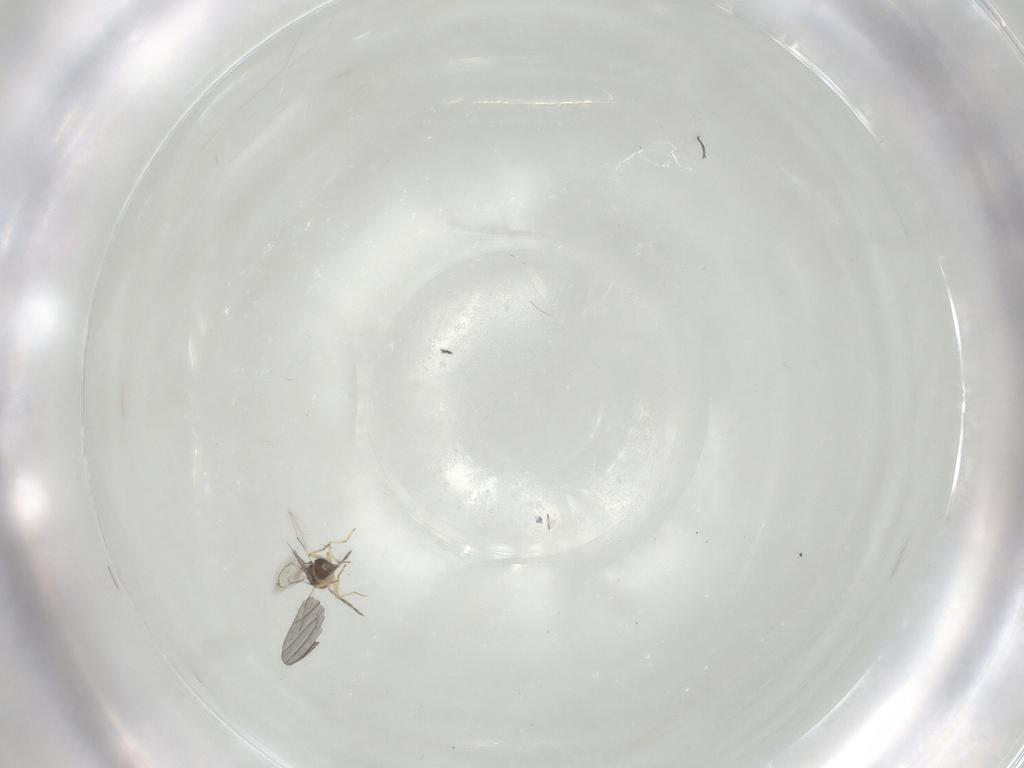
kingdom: Animalia
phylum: Arthropoda
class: Insecta
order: Diptera
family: Sciaridae
